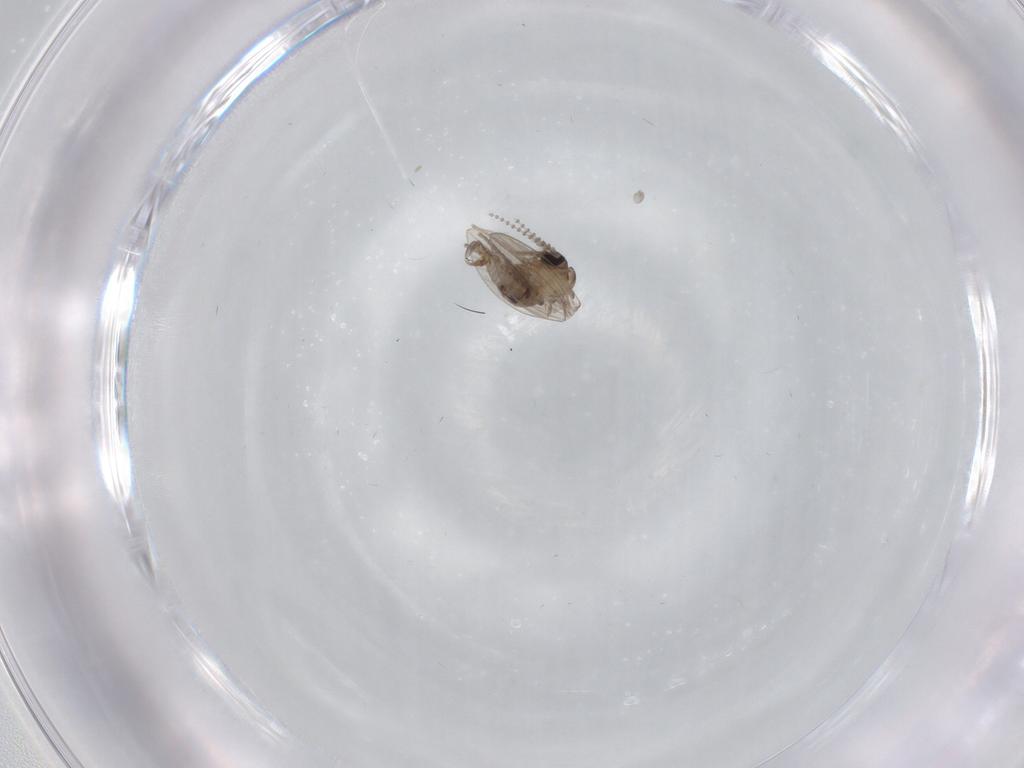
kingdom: Animalia
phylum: Arthropoda
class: Insecta
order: Diptera
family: Psychodidae
